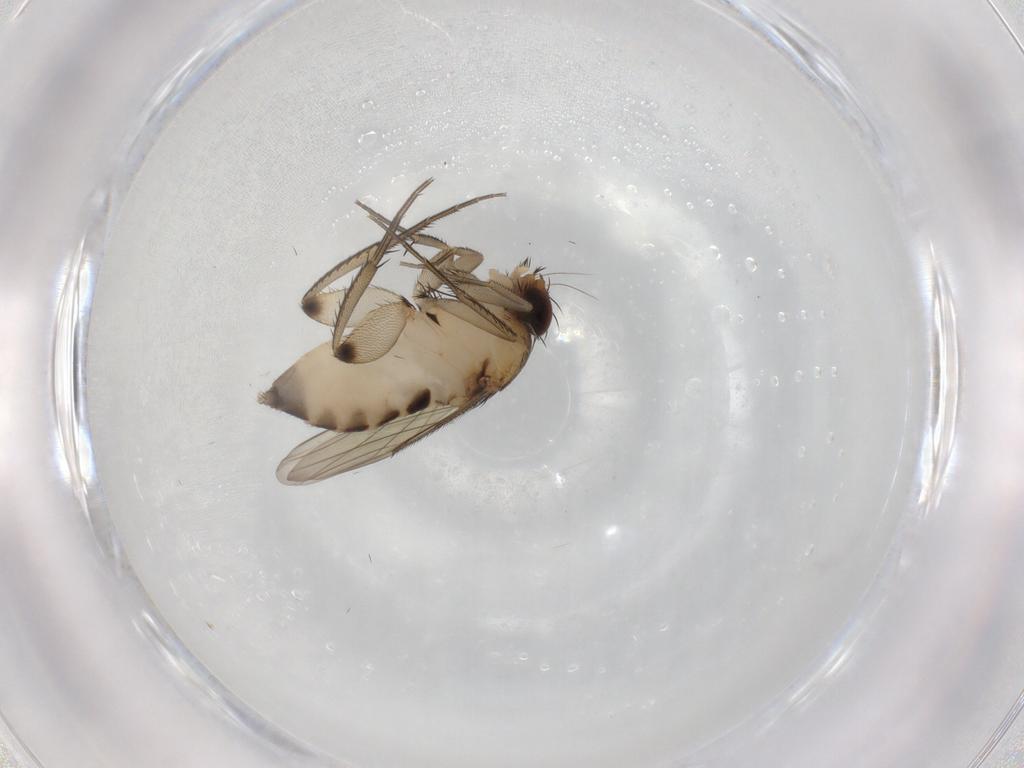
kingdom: Animalia
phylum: Arthropoda
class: Insecta
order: Diptera
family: Phoridae
